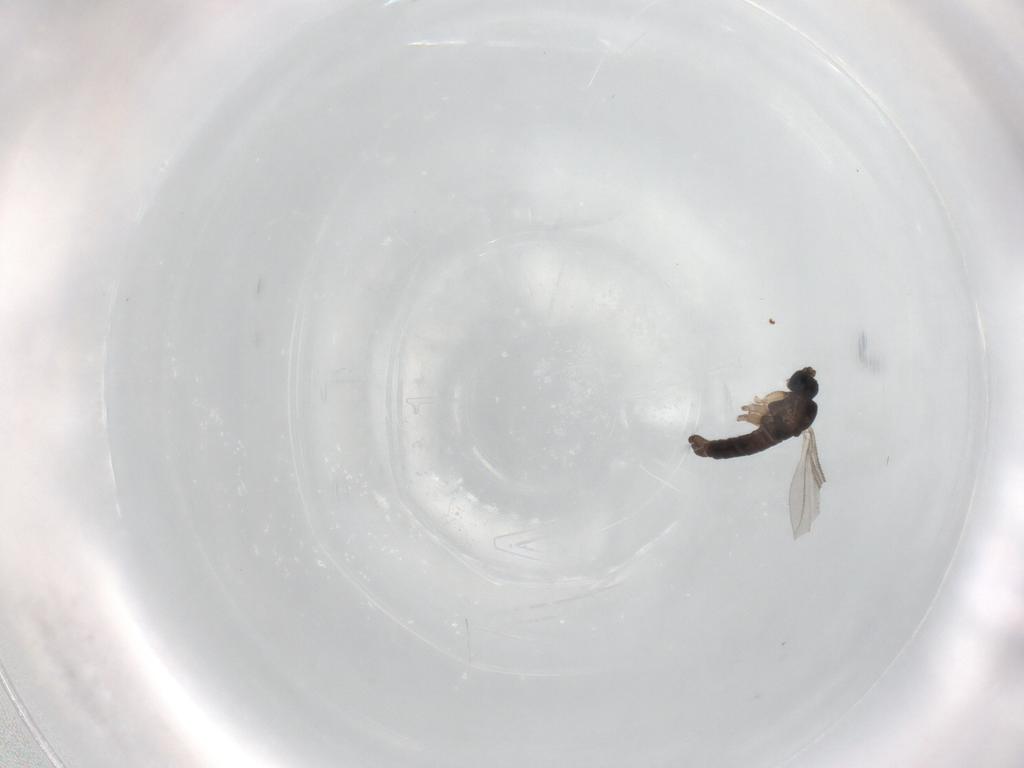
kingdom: Animalia
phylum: Arthropoda
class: Insecta
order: Diptera
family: Sciaridae
